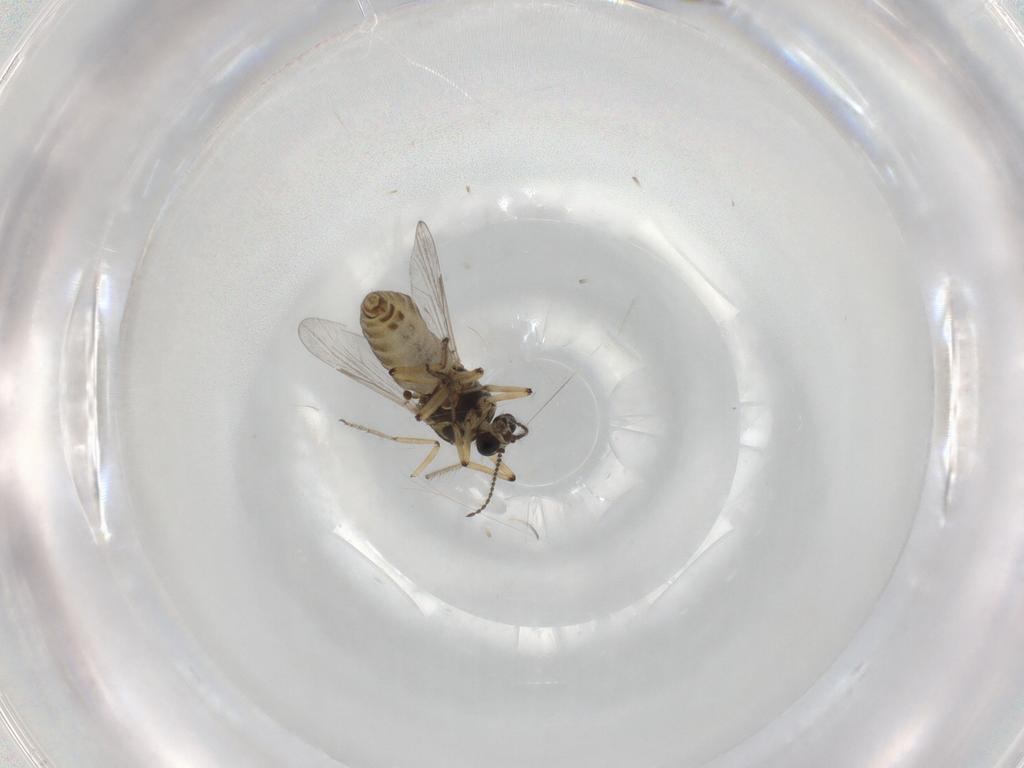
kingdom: Animalia
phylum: Arthropoda
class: Insecta
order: Diptera
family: Ceratopogonidae
